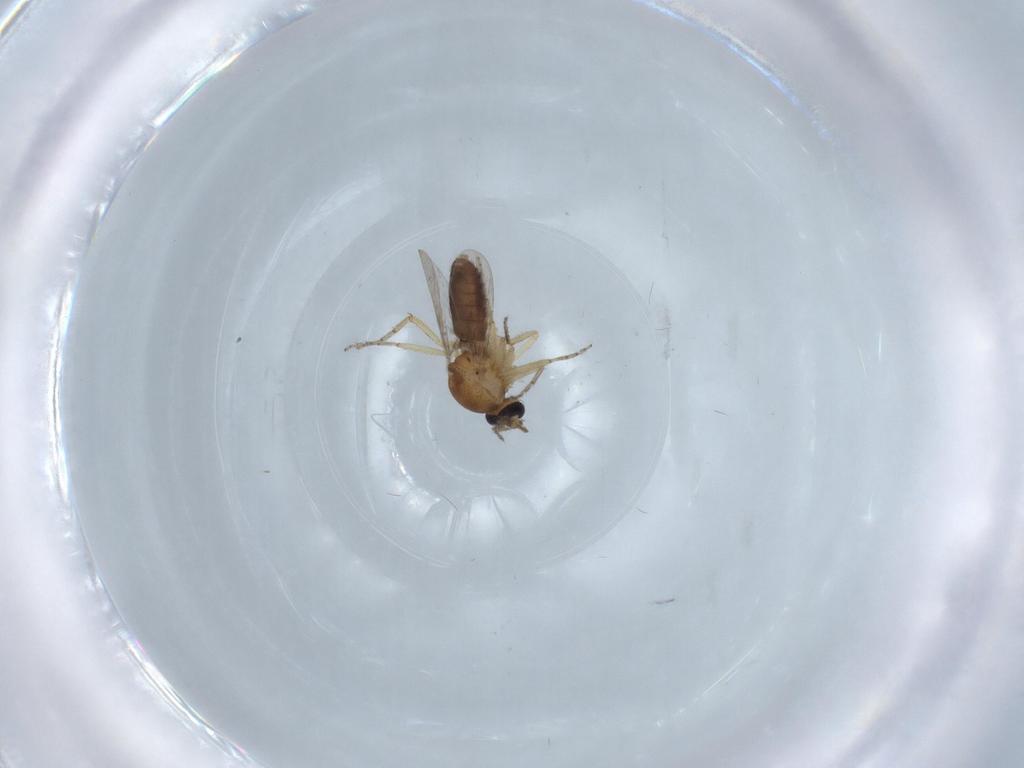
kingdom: Animalia
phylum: Arthropoda
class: Insecta
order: Diptera
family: Ceratopogonidae
